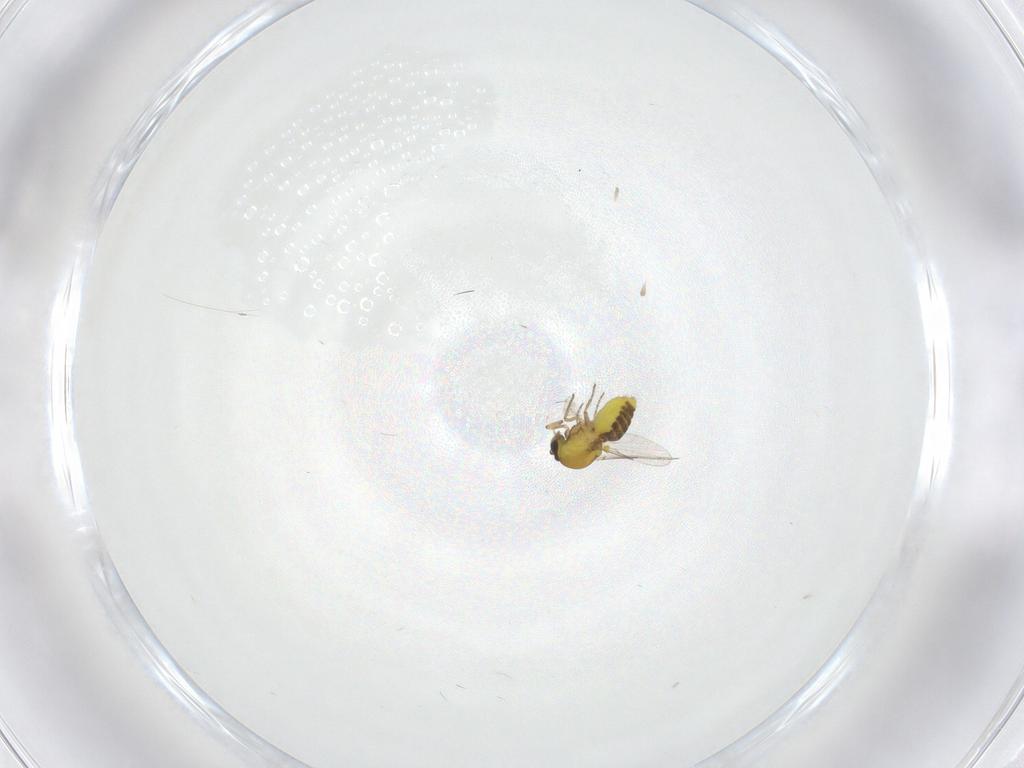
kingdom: Animalia
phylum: Arthropoda
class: Insecta
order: Diptera
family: Ceratopogonidae
